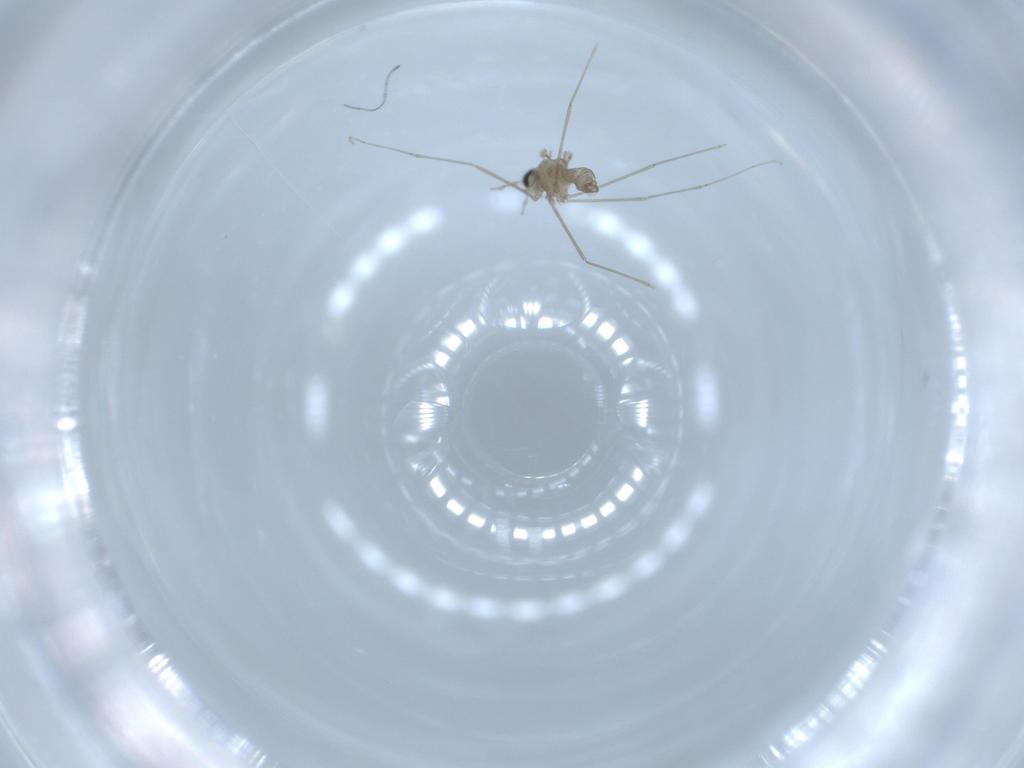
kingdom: Animalia
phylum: Arthropoda
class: Insecta
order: Diptera
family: Cecidomyiidae
